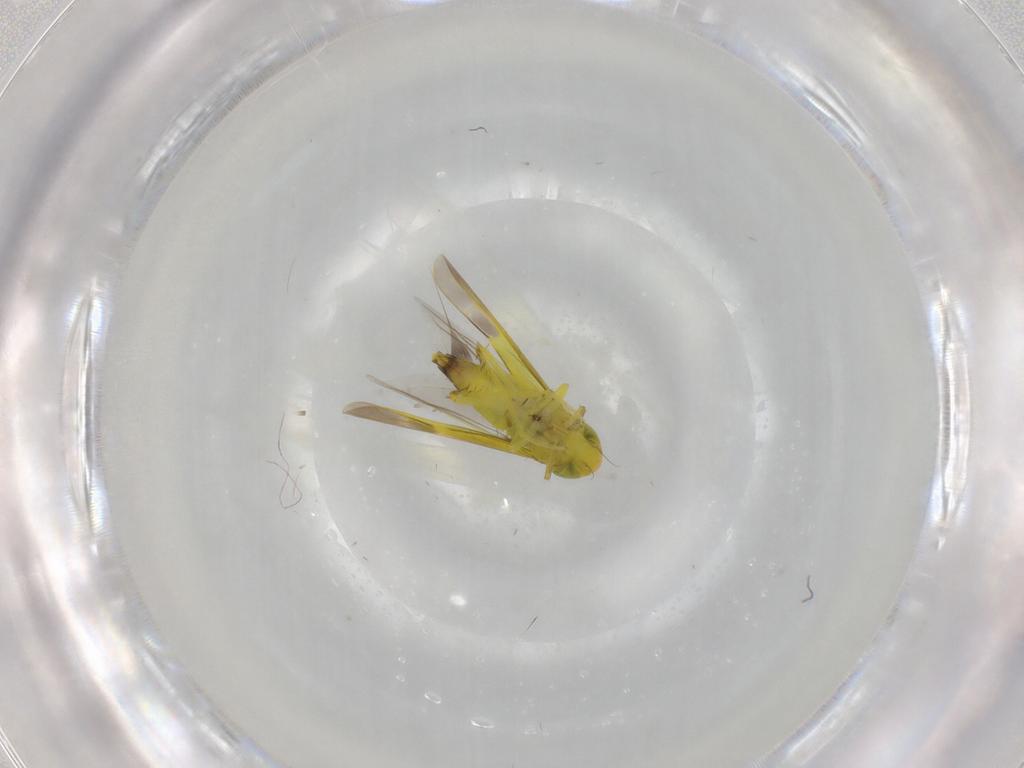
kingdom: Animalia
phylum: Arthropoda
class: Insecta
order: Hemiptera
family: Cicadellidae
